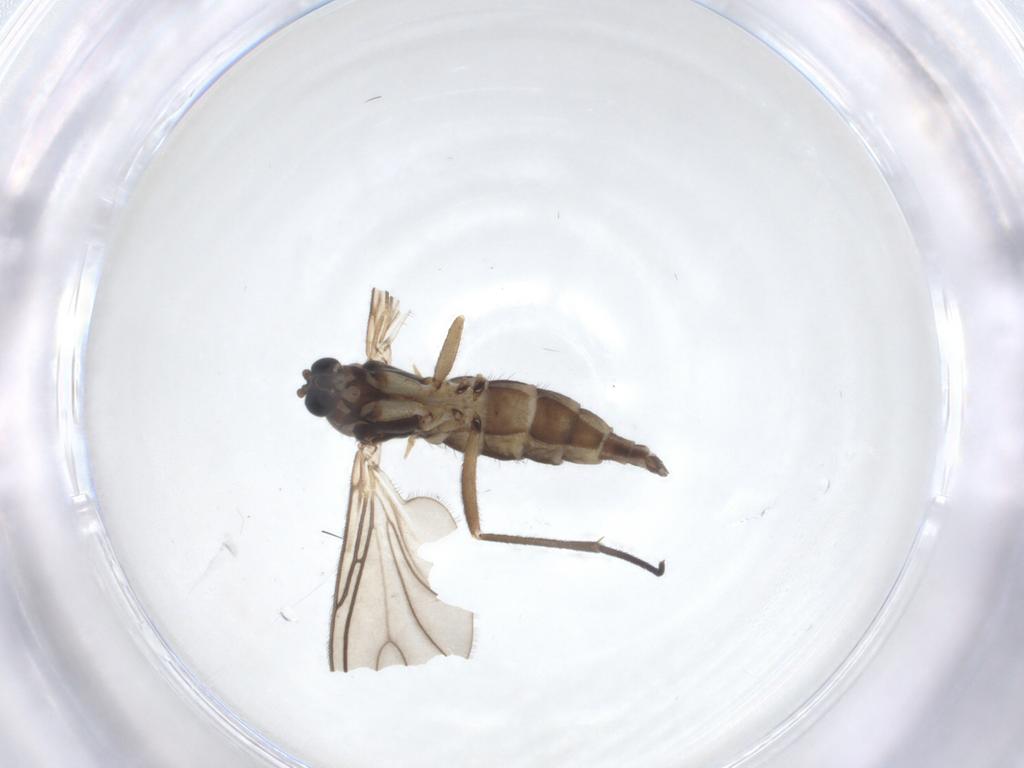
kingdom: Animalia
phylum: Arthropoda
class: Insecta
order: Diptera
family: Sciaridae
